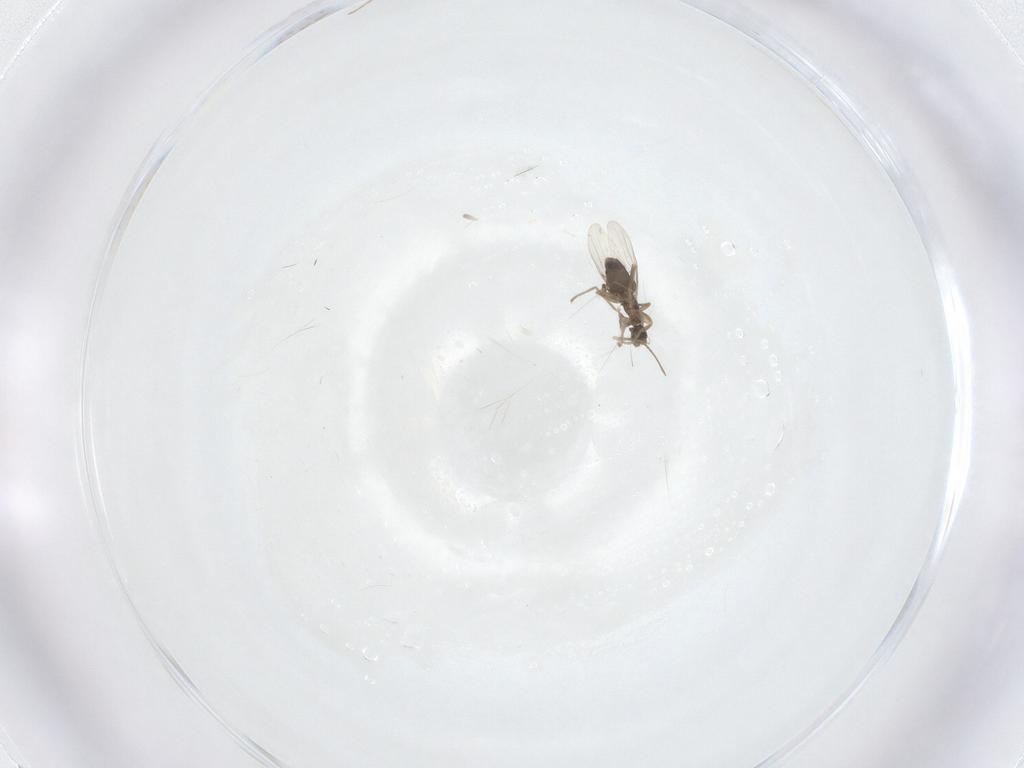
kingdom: Animalia
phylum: Arthropoda
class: Insecta
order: Diptera
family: Phoridae
